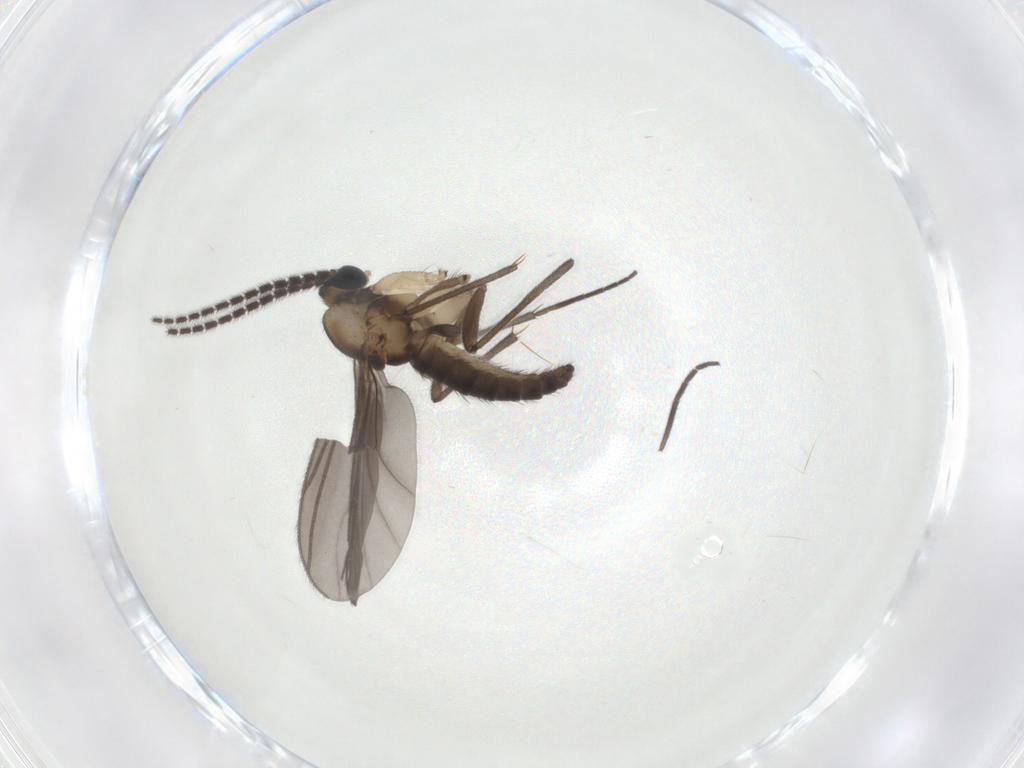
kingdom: Animalia
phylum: Arthropoda
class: Insecta
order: Diptera
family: Sciaridae
